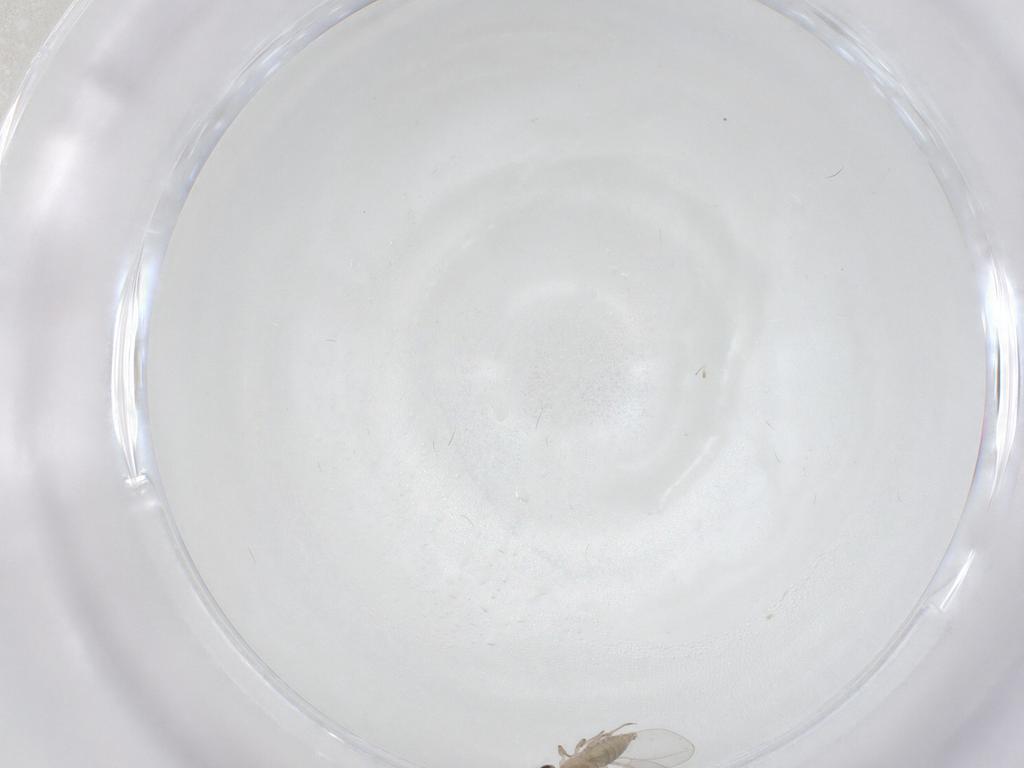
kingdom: Animalia
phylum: Arthropoda
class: Insecta
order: Diptera
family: Cecidomyiidae
